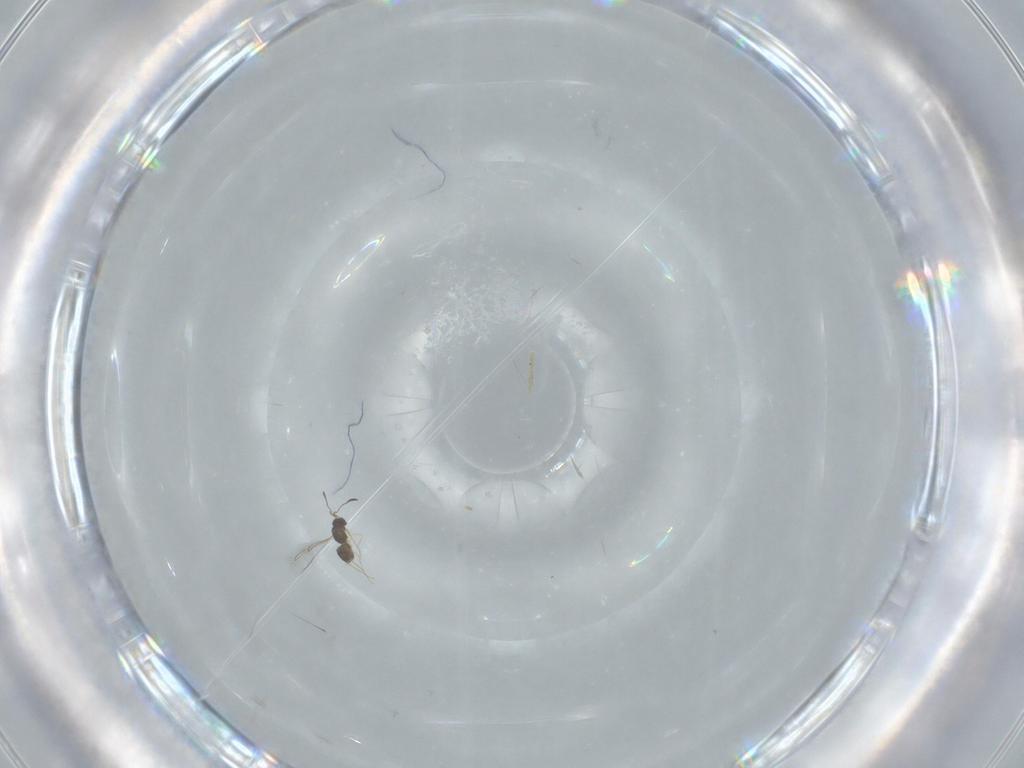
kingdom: Animalia
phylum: Arthropoda
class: Insecta
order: Hymenoptera
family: Mymaridae
